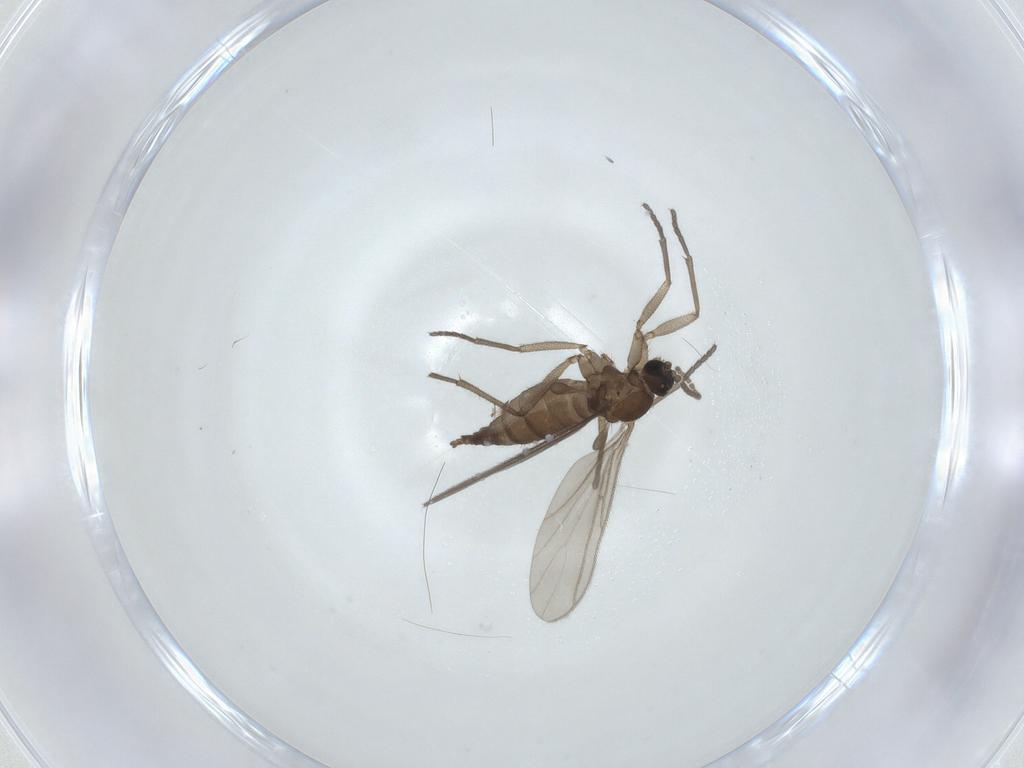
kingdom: Animalia
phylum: Arthropoda
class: Insecta
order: Diptera
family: Sciaridae
